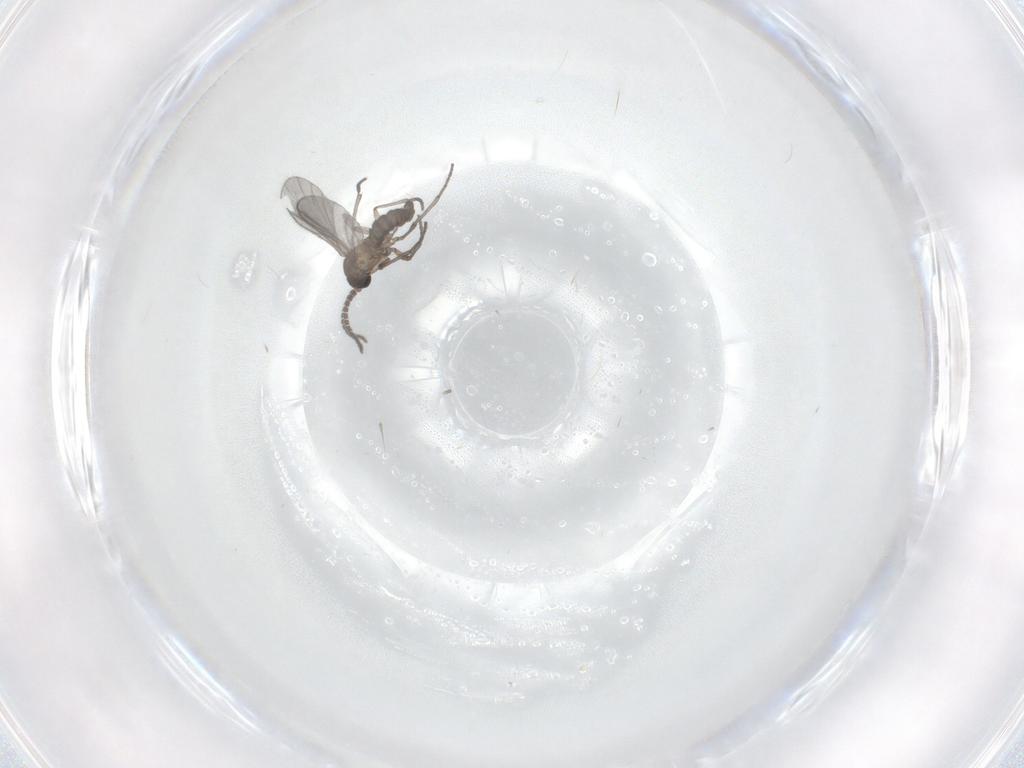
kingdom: Animalia
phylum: Arthropoda
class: Insecta
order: Diptera
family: Sciaridae
